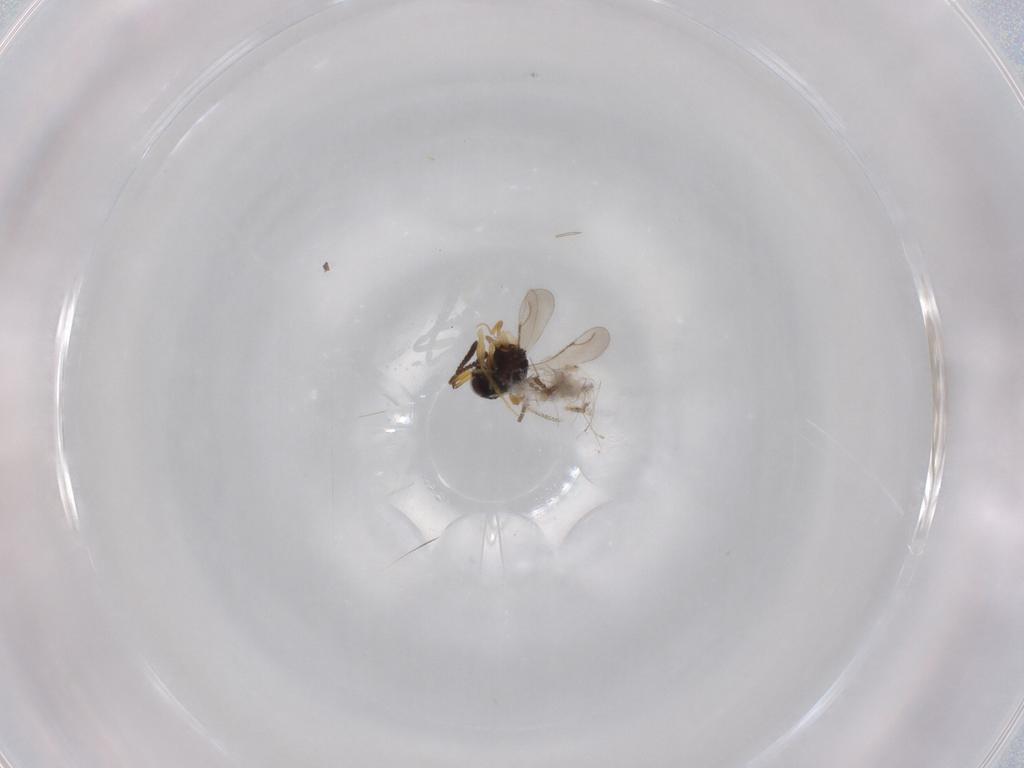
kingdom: Animalia
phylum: Arthropoda
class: Insecta
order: Hymenoptera
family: Formicidae
